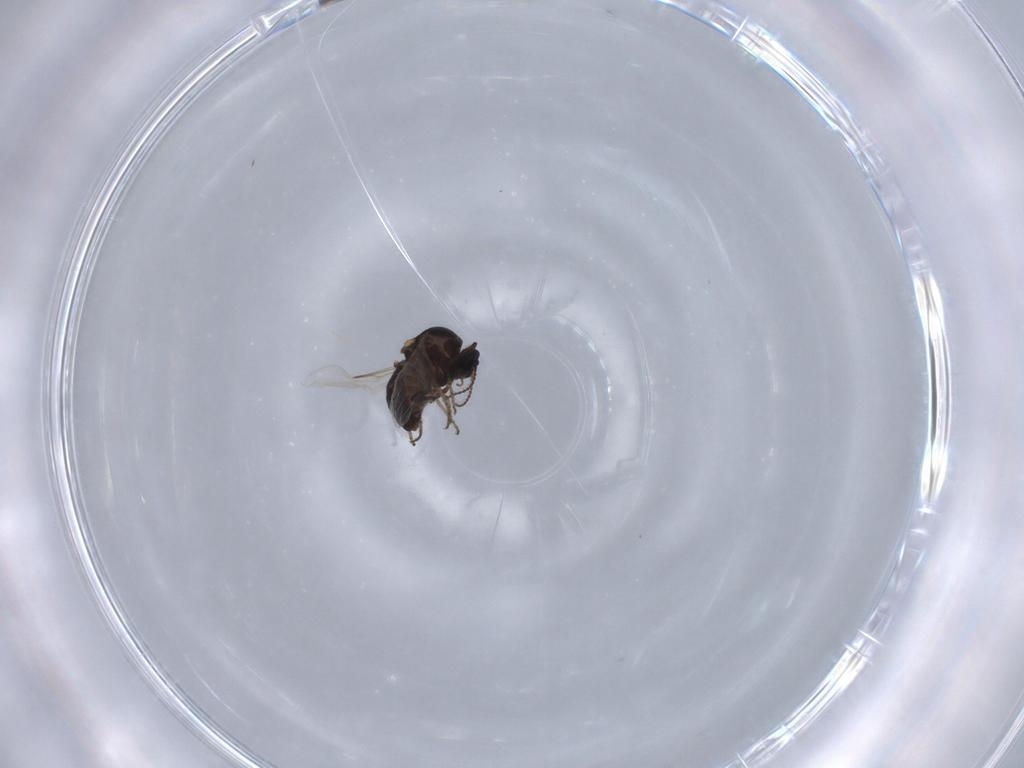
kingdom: Animalia
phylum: Arthropoda
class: Insecta
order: Diptera
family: Ceratopogonidae
